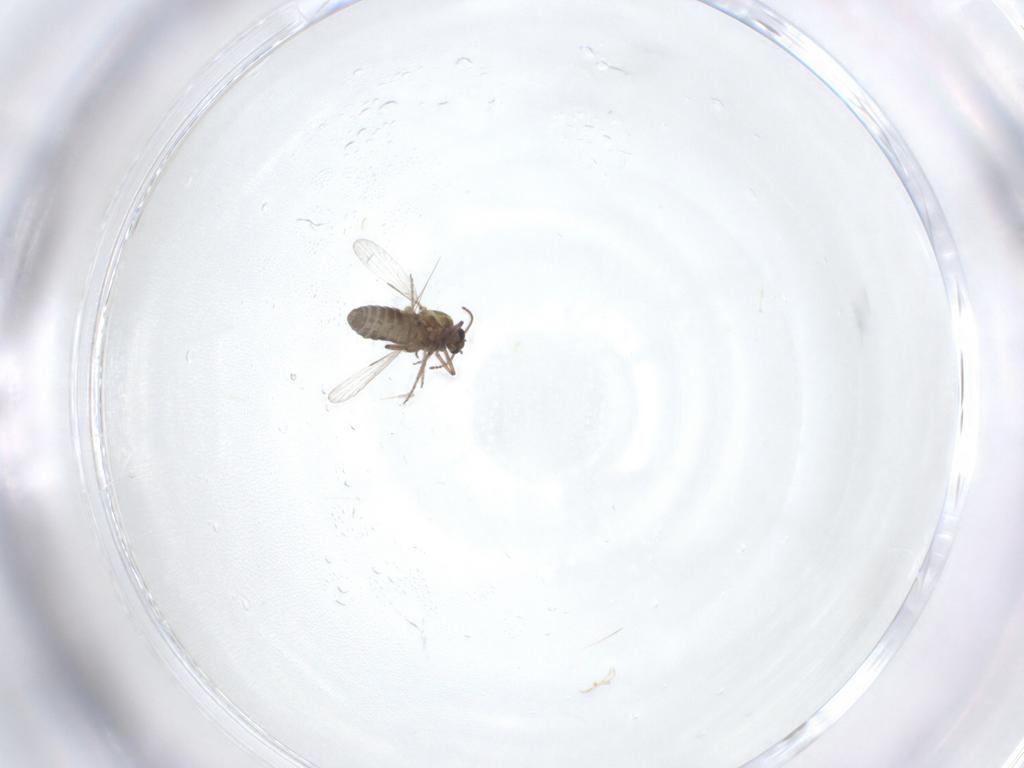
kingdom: Animalia
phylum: Arthropoda
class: Insecta
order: Diptera
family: Ceratopogonidae
